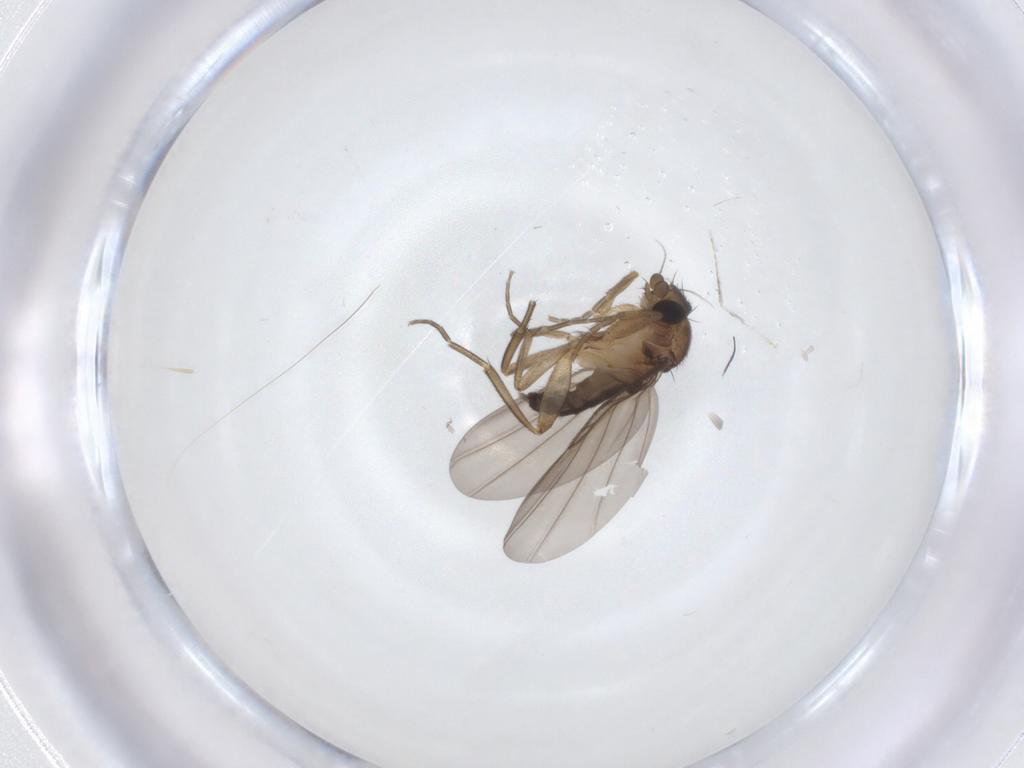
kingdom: Animalia
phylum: Arthropoda
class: Insecta
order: Diptera
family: Phoridae
